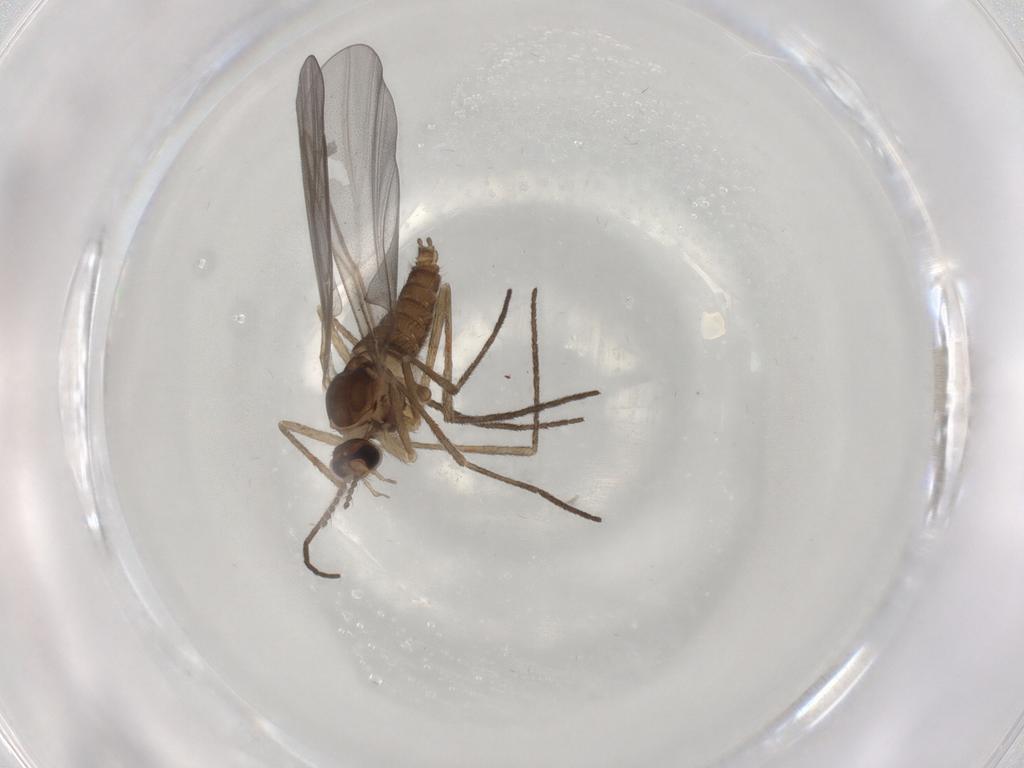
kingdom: Animalia
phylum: Arthropoda
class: Insecta
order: Diptera
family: Cecidomyiidae
